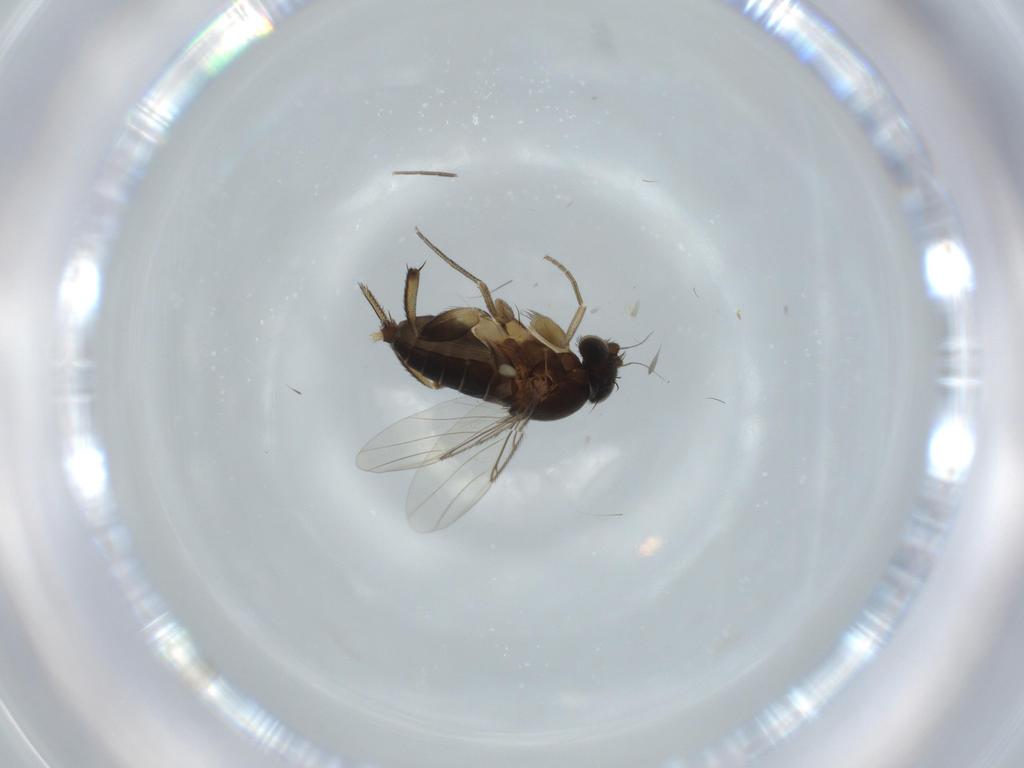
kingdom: Animalia
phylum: Arthropoda
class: Insecta
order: Diptera
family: Phoridae
